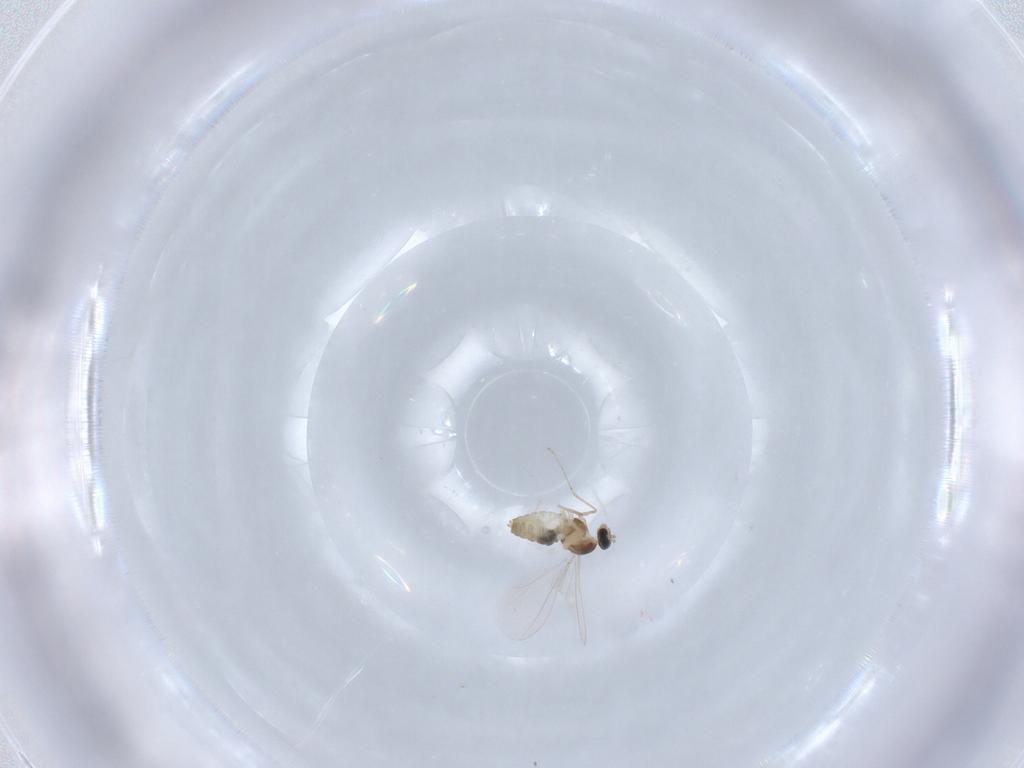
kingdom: Animalia
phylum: Arthropoda
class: Insecta
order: Diptera
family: Cecidomyiidae
